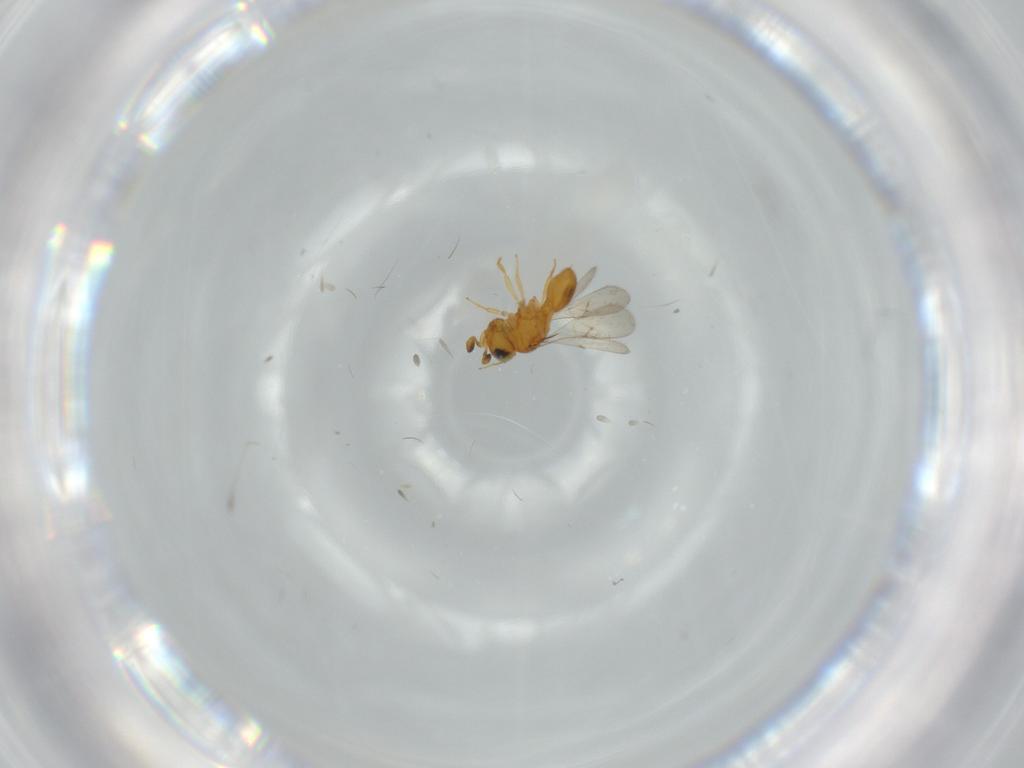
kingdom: Animalia
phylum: Arthropoda
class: Insecta
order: Hymenoptera
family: Scelionidae
